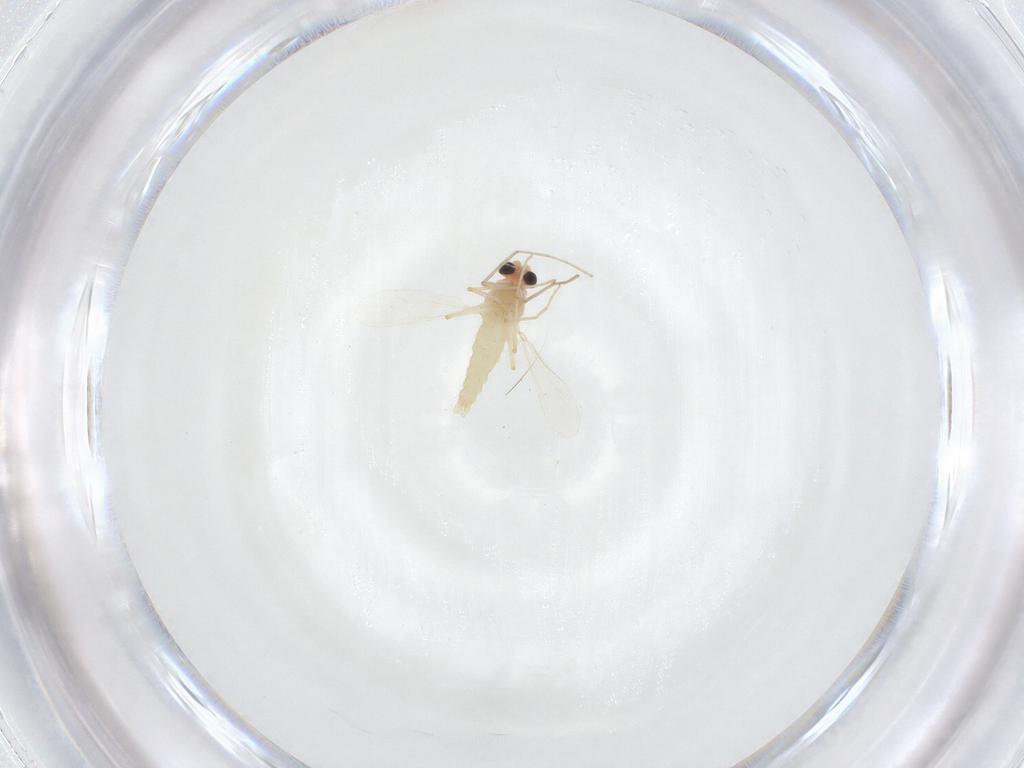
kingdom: Animalia
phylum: Arthropoda
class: Insecta
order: Diptera
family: Chironomidae
